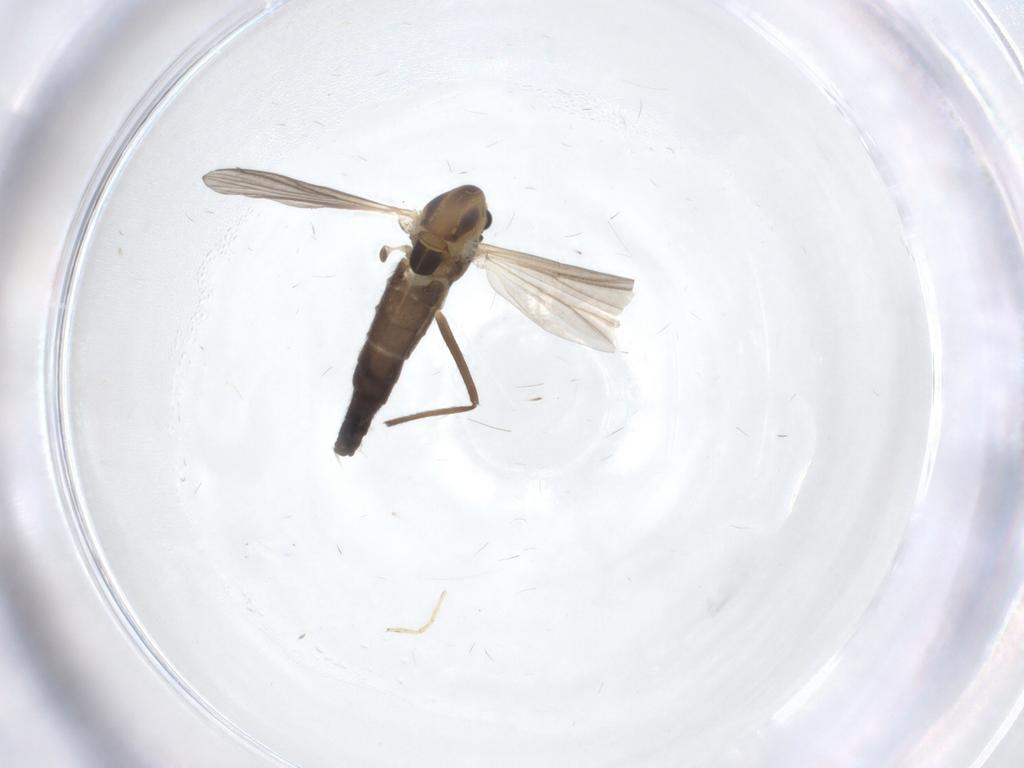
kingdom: Animalia
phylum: Arthropoda
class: Insecta
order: Diptera
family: Chironomidae
